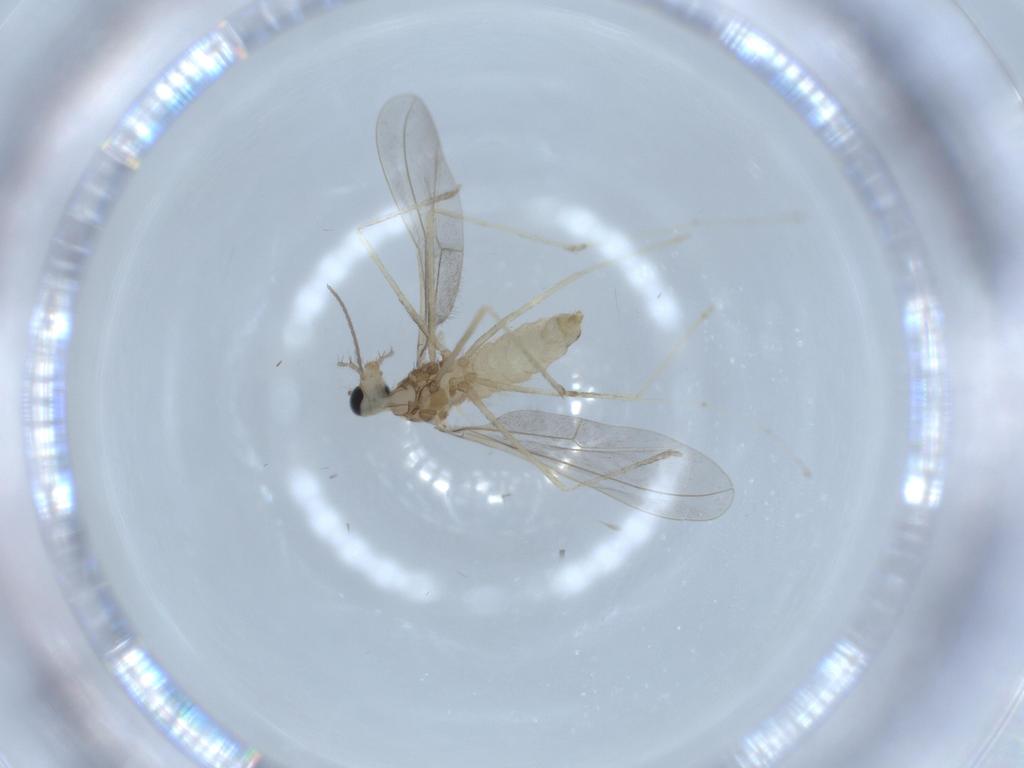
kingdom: Animalia
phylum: Arthropoda
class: Insecta
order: Diptera
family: Cecidomyiidae
